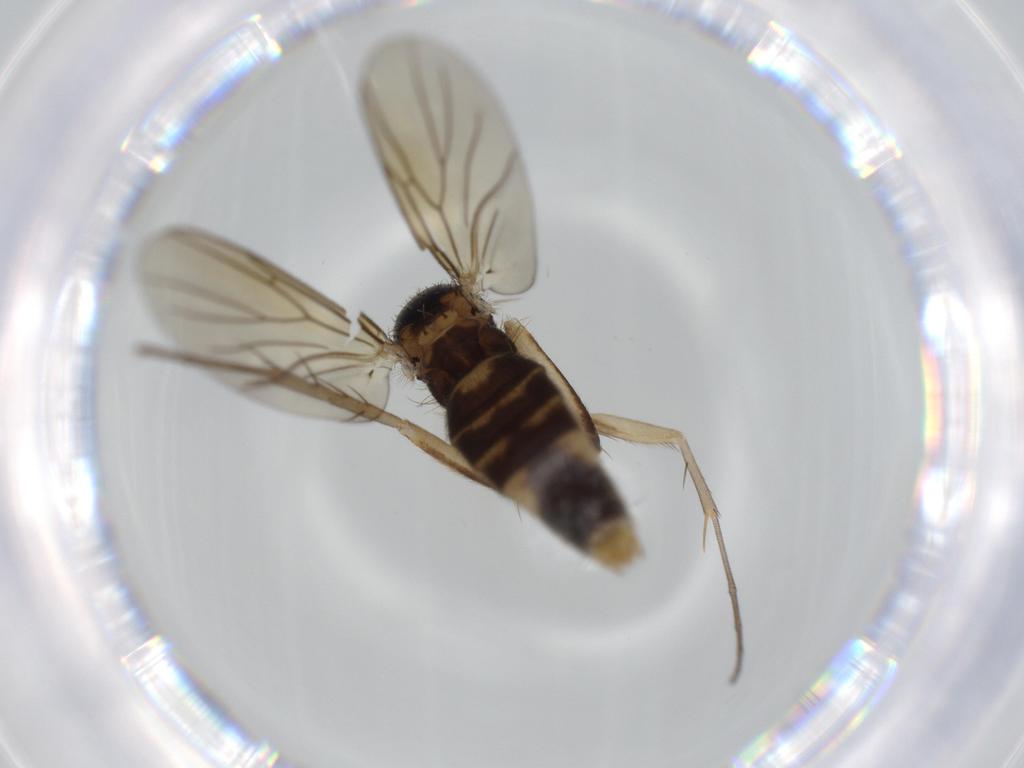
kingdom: Animalia
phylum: Arthropoda
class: Insecta
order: Diptera
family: Mycetophilidae
